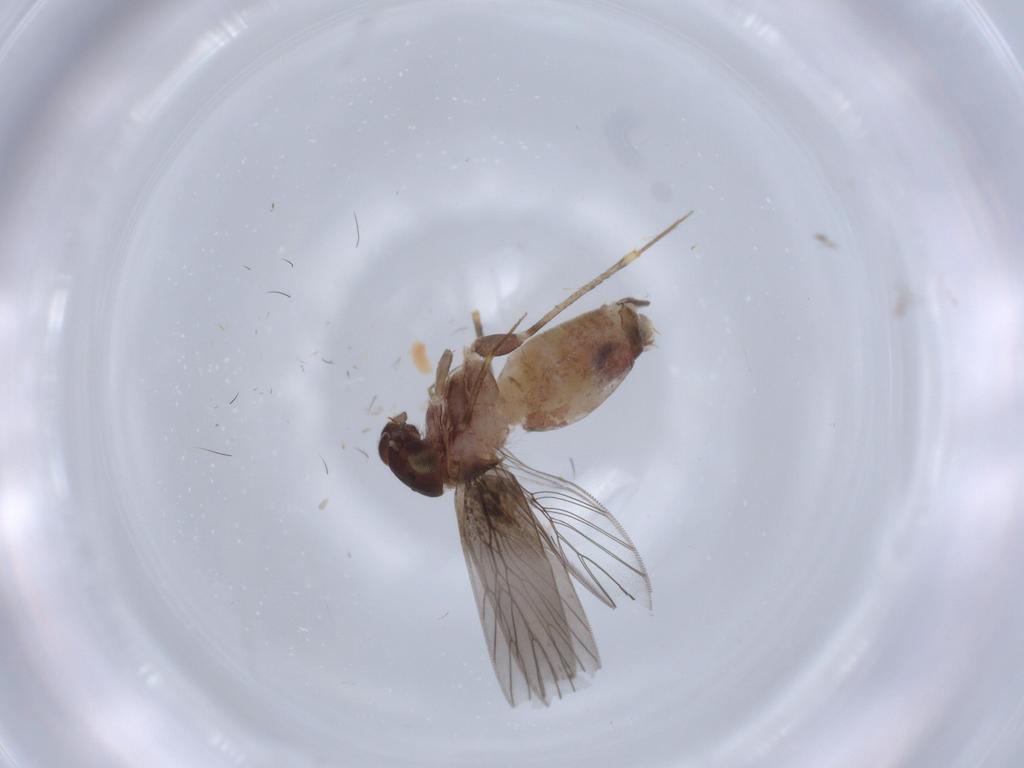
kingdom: Animalia
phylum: Arthropoda
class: Insecta
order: Psocodea
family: Lepidopsocidae
